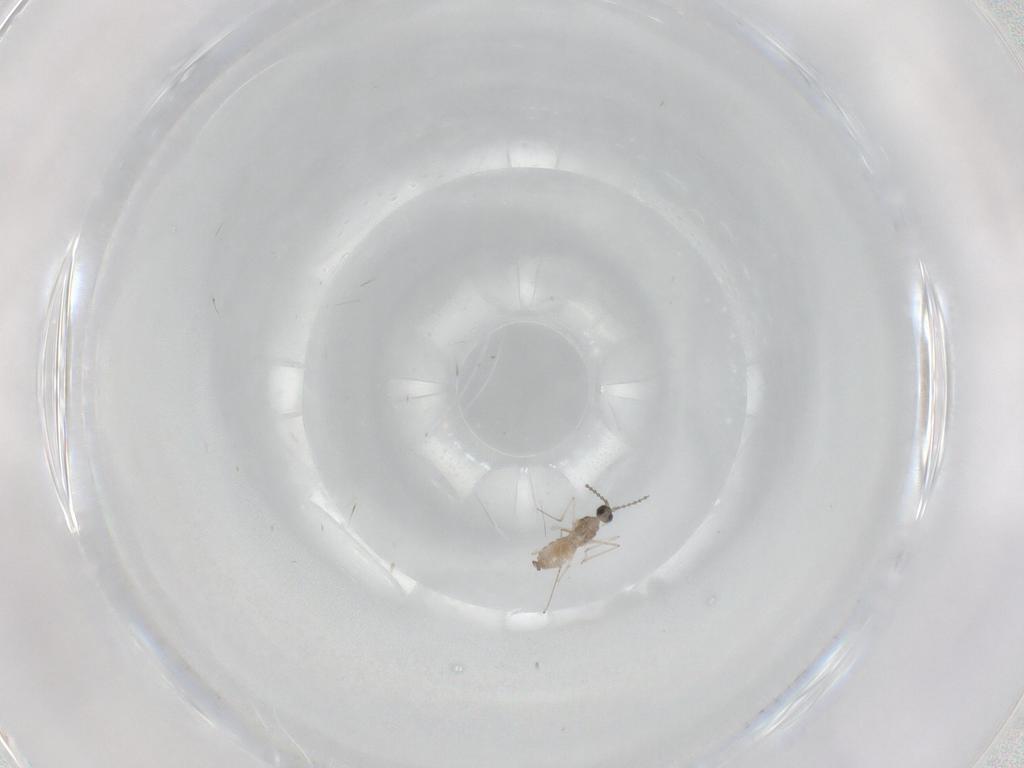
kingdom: Animalia
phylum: Arthropoda
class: Insecta
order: Diptera
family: Cecidomyiidae
